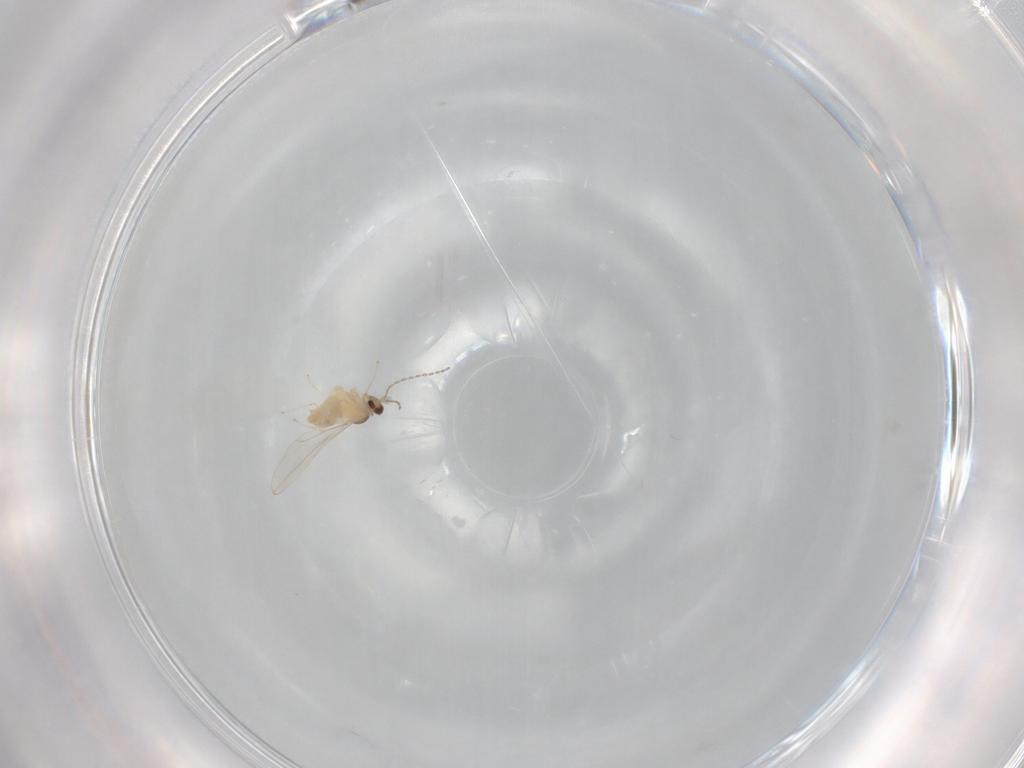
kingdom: Animalia
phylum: Arthropoda
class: Insecta
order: Diptera
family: Cecidomyiidae
